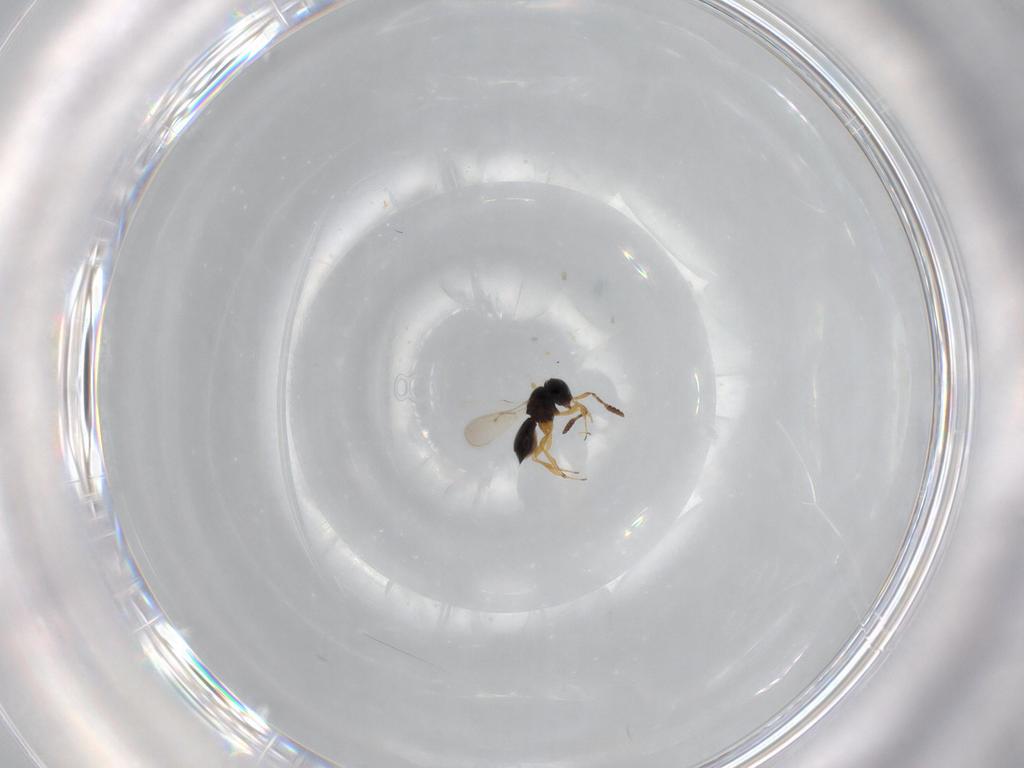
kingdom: Animalia
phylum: Arthropoda
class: Insecta
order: Hymenoptera
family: Scelionidae
